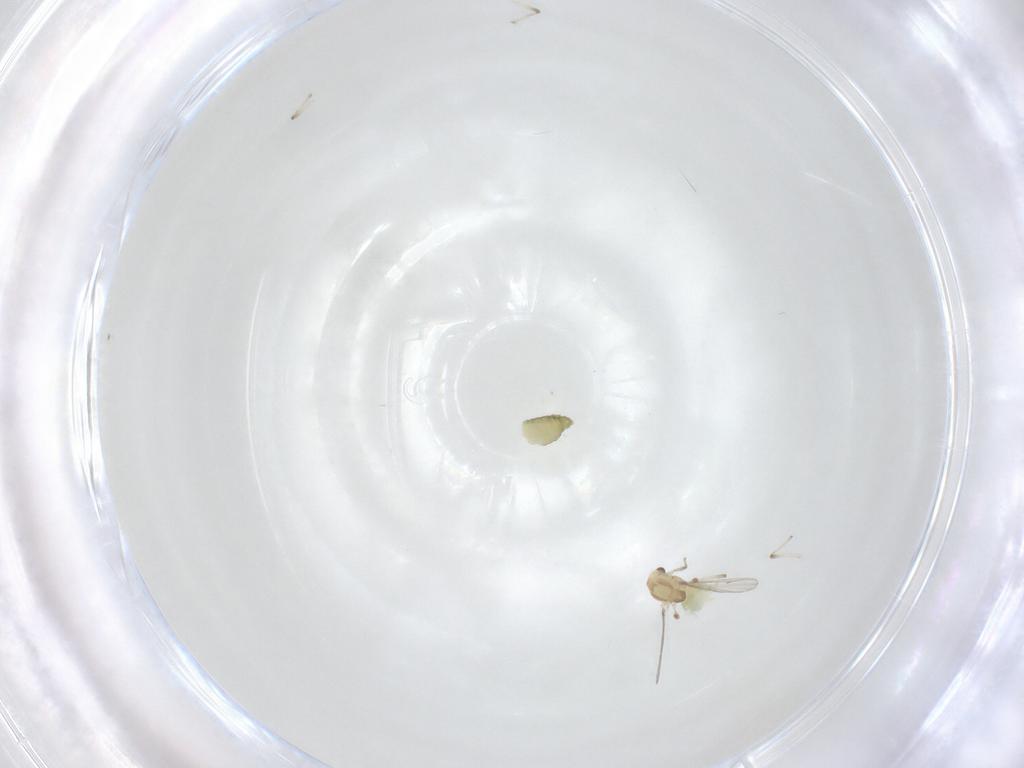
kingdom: Animalia
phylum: Arthropoda
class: Insecta
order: Diptera
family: Chironomidae
